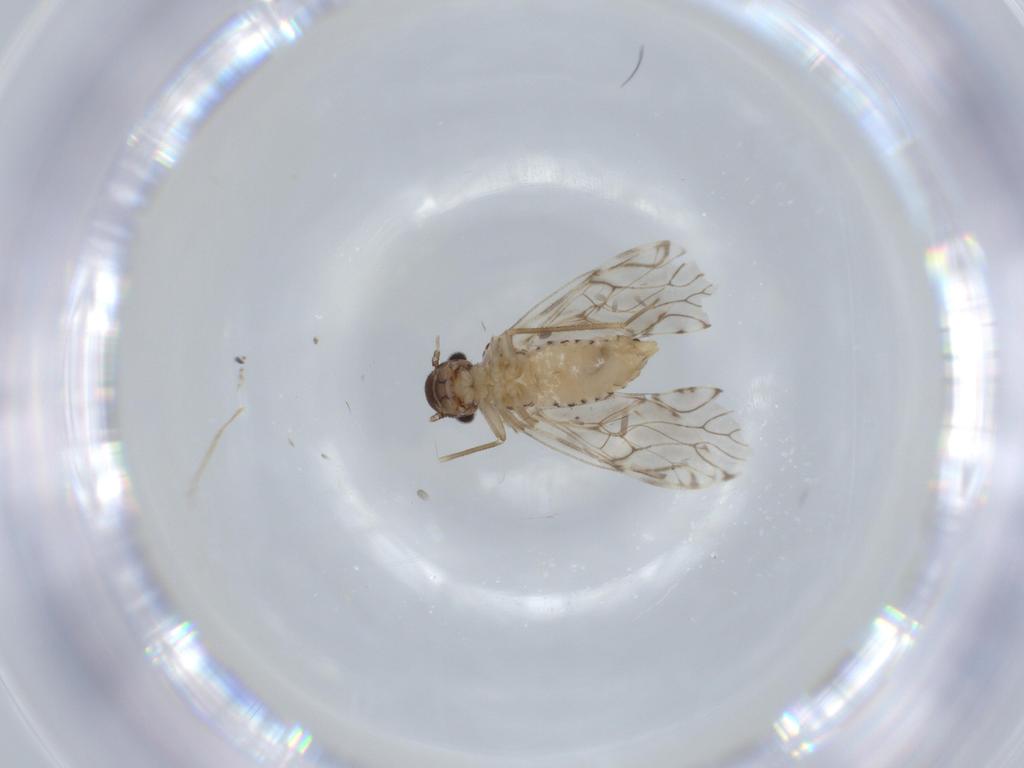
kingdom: Animalia
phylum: Arthropoda
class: Insecta
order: Psocodea
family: Epipsocidae
